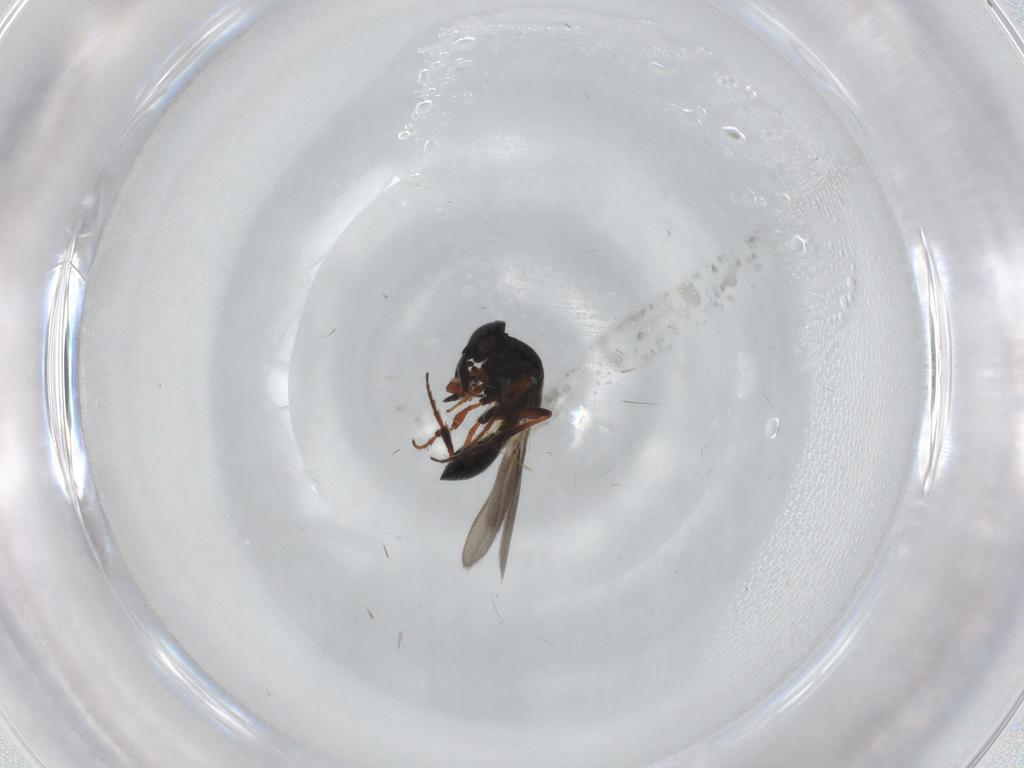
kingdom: Animalia
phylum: Arthropoda
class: Insecta
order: Hymenoptera
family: Platygastridae
